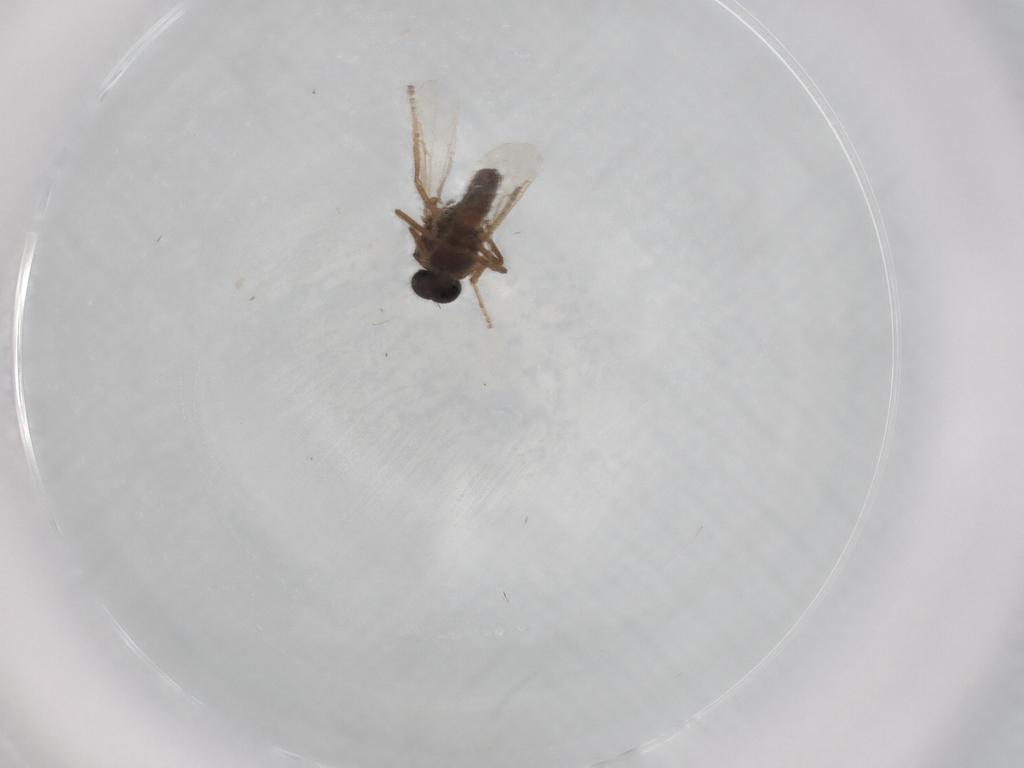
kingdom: Animalia
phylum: Arthropoda
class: Insecta
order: Diptera
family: Ceratopogonidae
